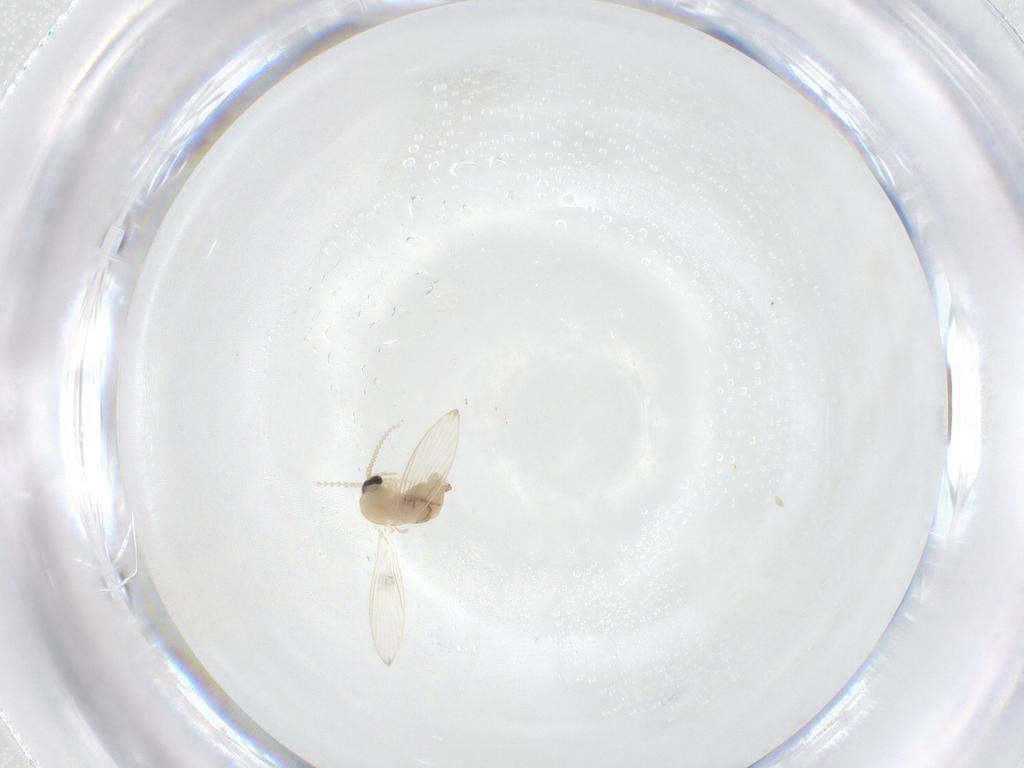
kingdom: Animalia
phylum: Arthropoda
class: Insecta
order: Diptera
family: Psychodidae
